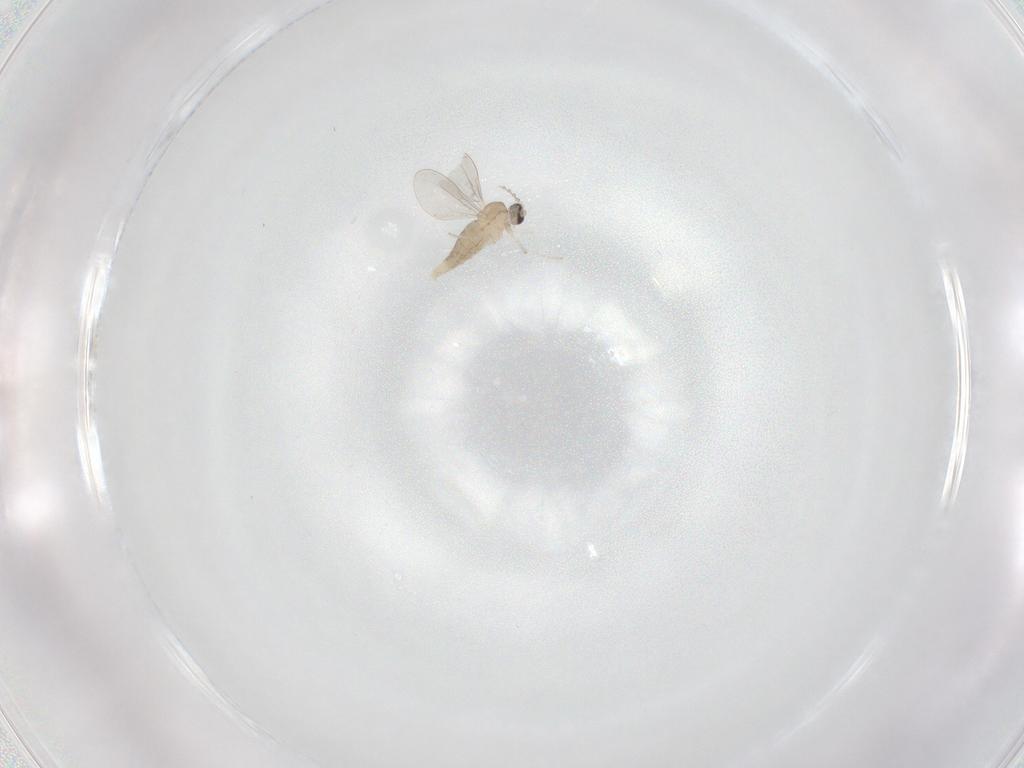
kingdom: Animalia
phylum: Arthropoda
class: Insecta
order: Diptera
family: Cecidomyiidae
